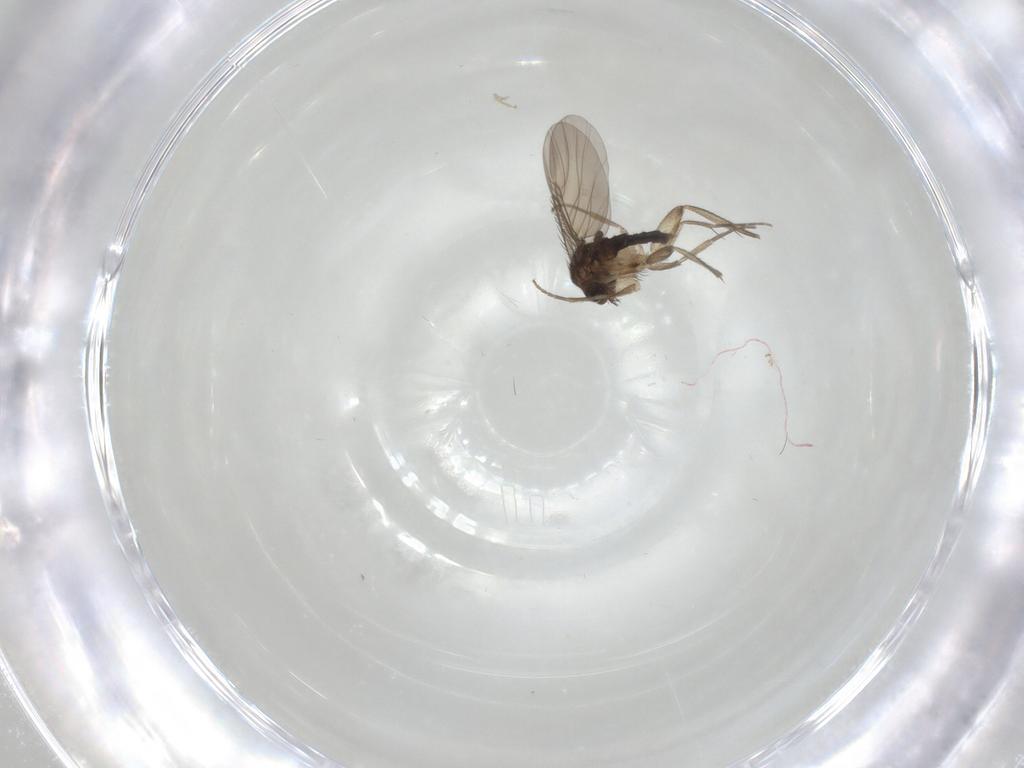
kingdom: Animalia
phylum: Arthropoda
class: Insecta
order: Diptera
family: Phoridae
